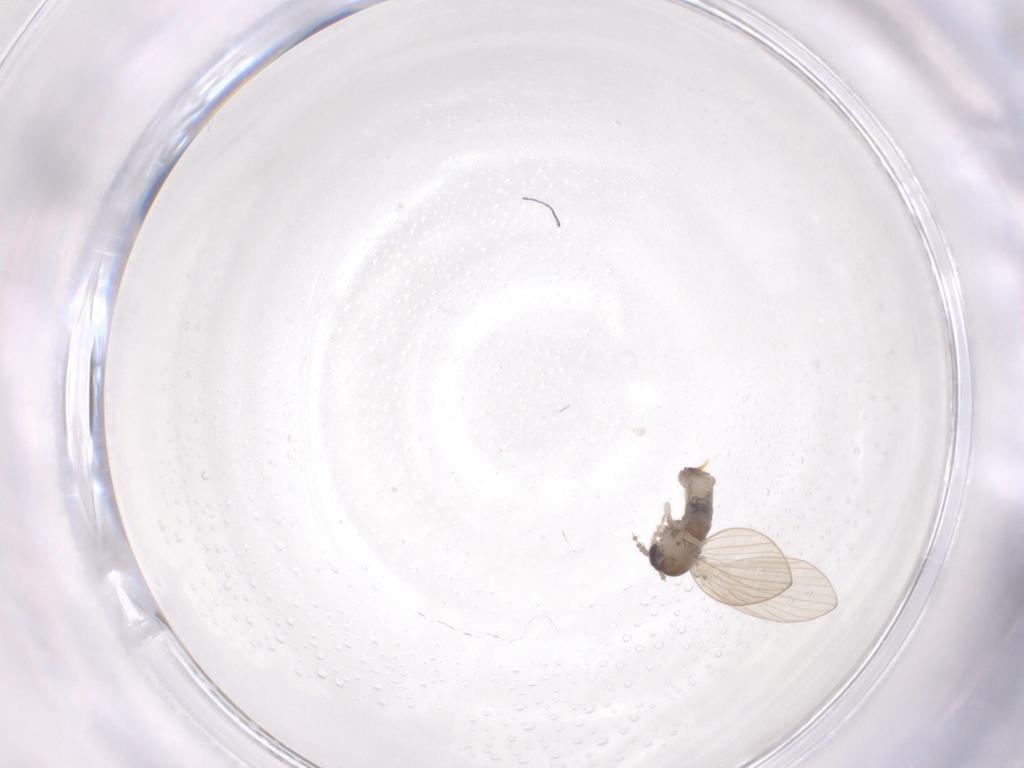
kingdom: Animalia
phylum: Arthropoda
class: Insecta
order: Diptera
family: Psychodidae
